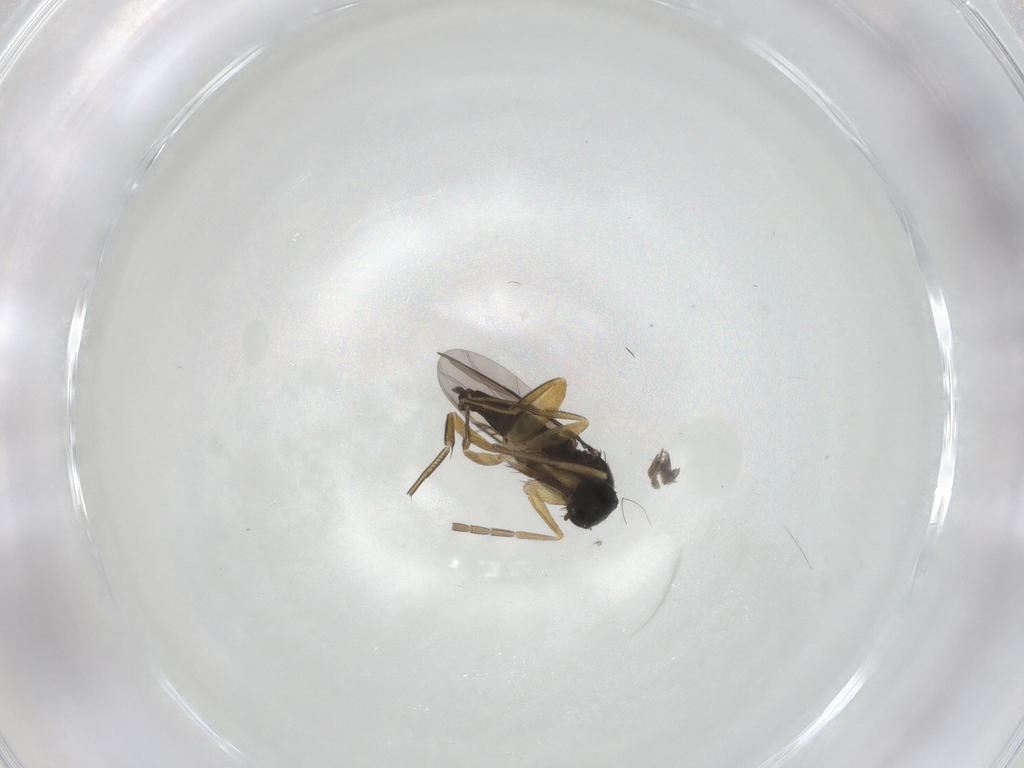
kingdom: Animalia
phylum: Arthropoda
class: Insecta
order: Diptera
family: Phoridae
